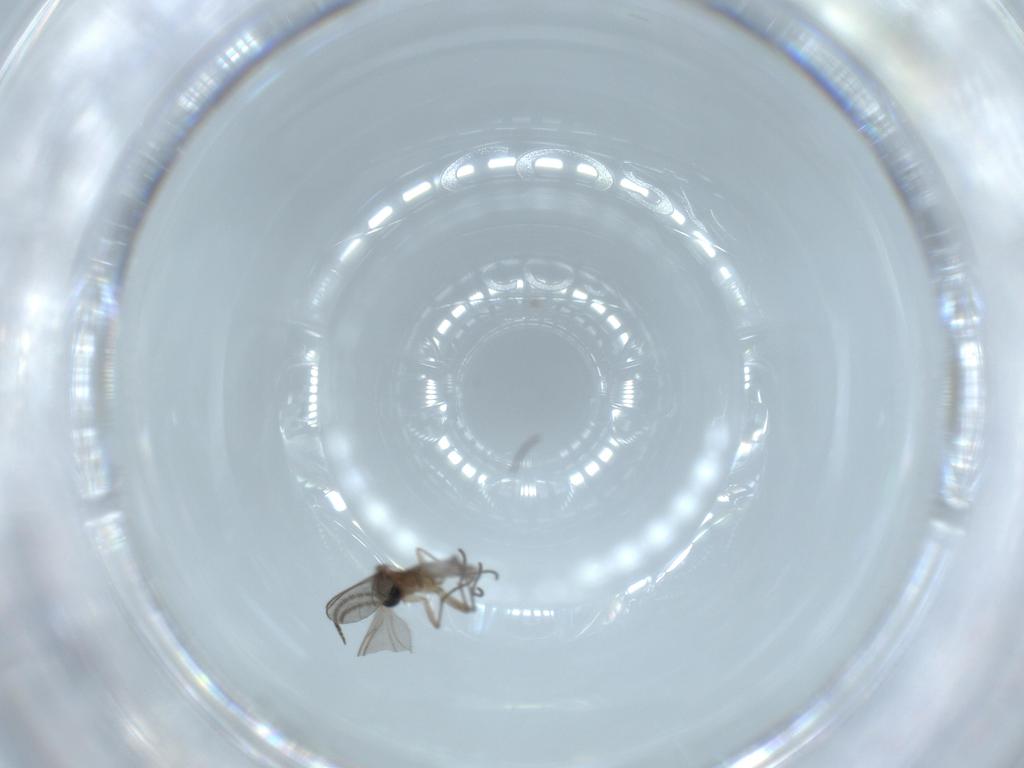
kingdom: Animalia
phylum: Arthropoda
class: Insecta
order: Diptera
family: Sciaridae
